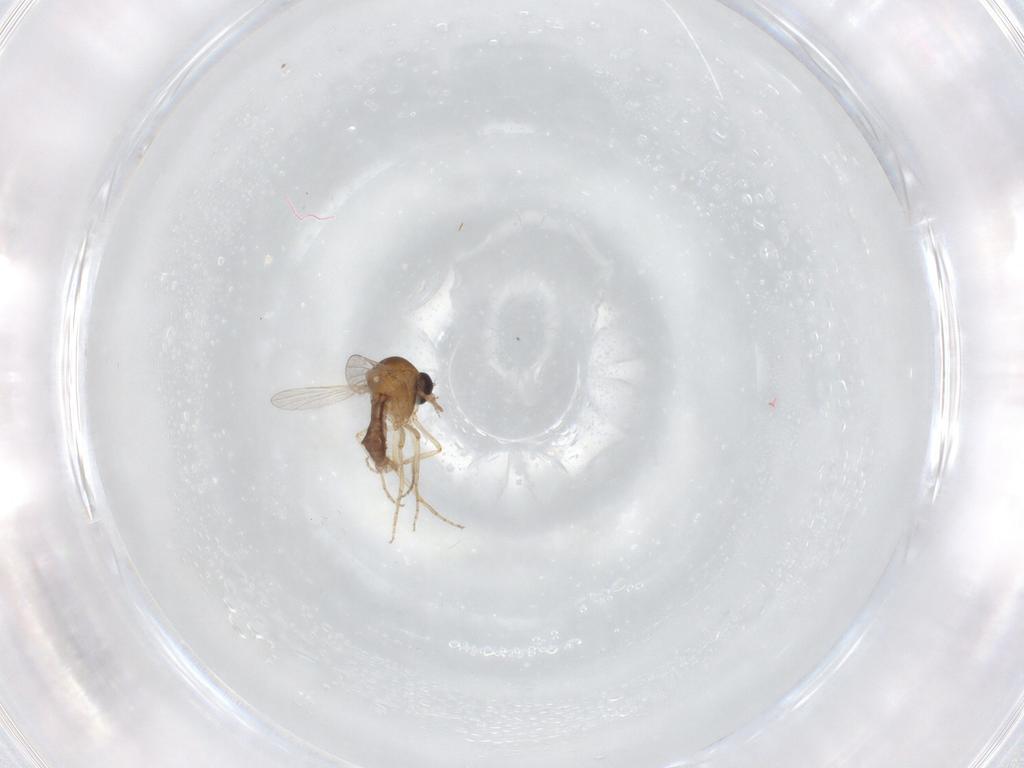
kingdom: Animalia
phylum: Arthropoda
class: Insecta
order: Diptera
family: Ceratopogonidae
